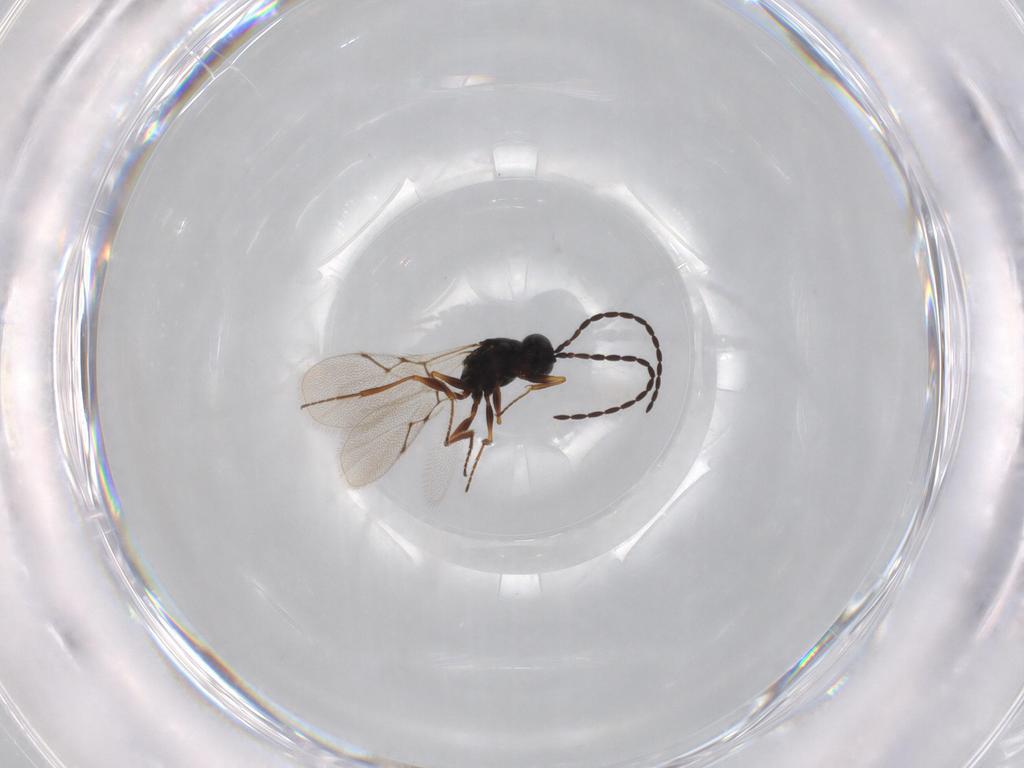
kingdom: Animalia
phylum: Arthropoda
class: Insecta
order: Hymenoptera
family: Figitidae
